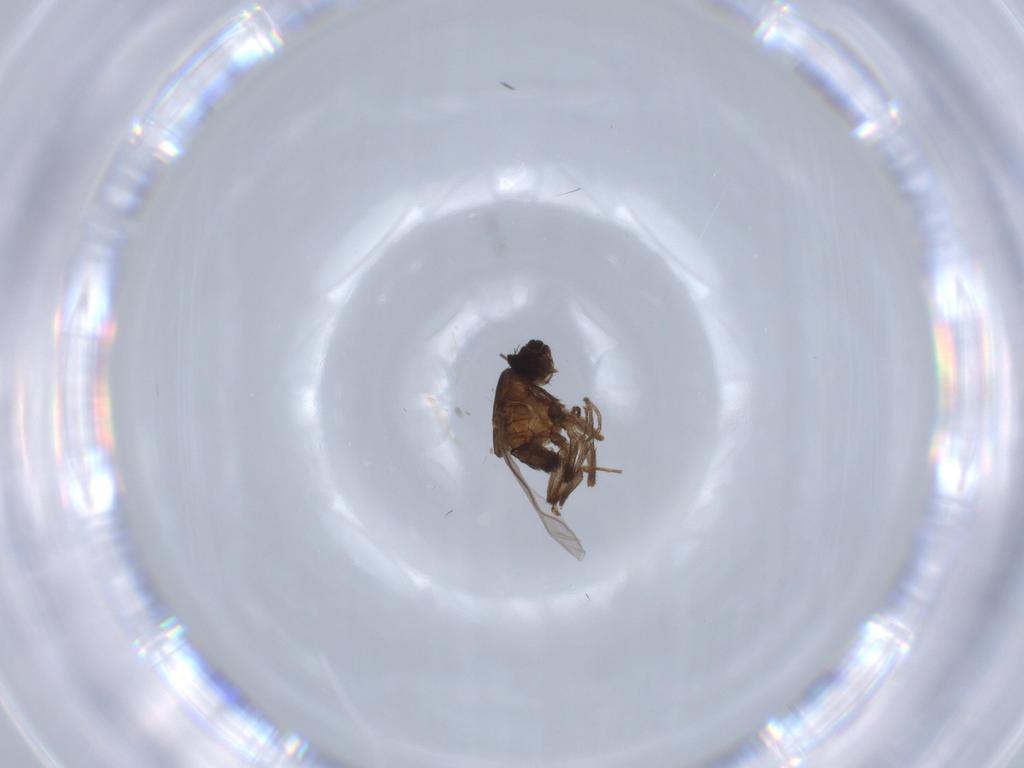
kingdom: Animalia
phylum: Arthropoda
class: Insecta
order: Diptera
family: Sphaeroceridae
